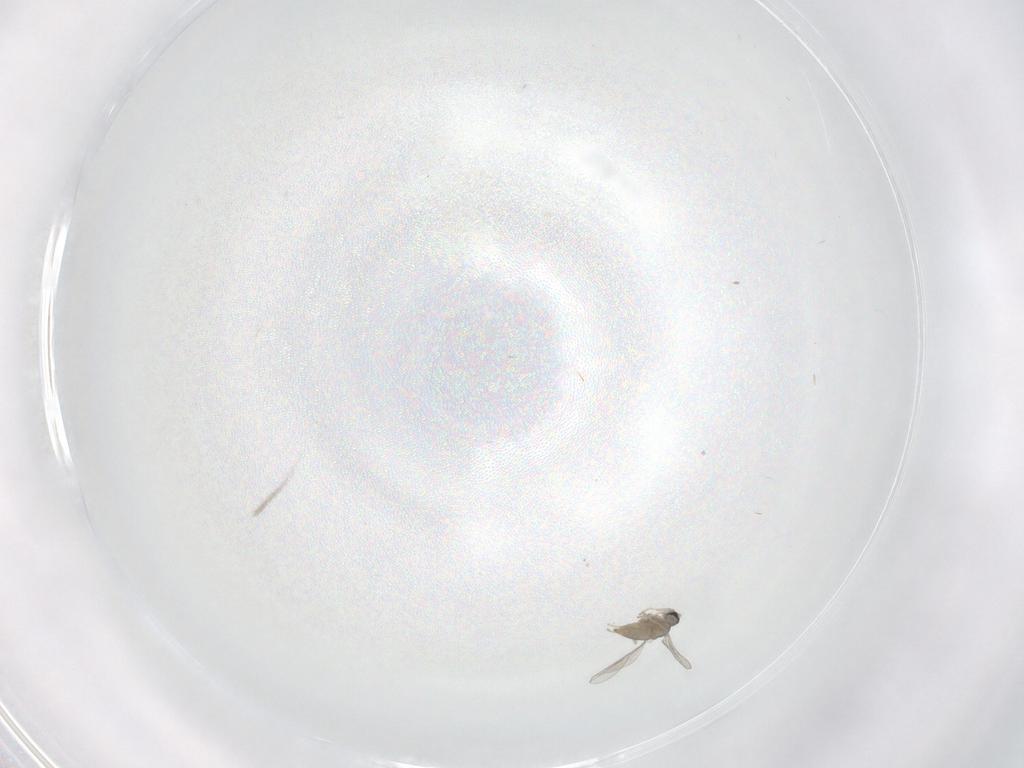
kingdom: Animalia
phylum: Arthropoda
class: Insecta
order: Diptera
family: Cecidomyiidae
